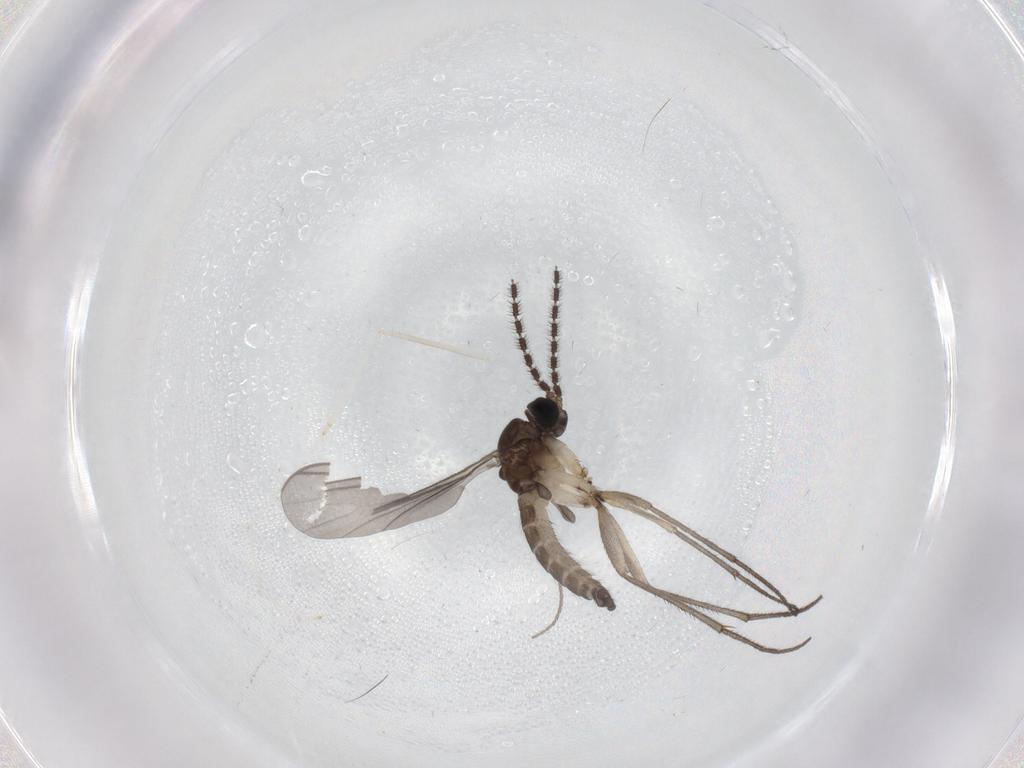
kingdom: Animalia
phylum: Arthropoda
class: Insecta
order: Diptera
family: Cecidomyiidae
